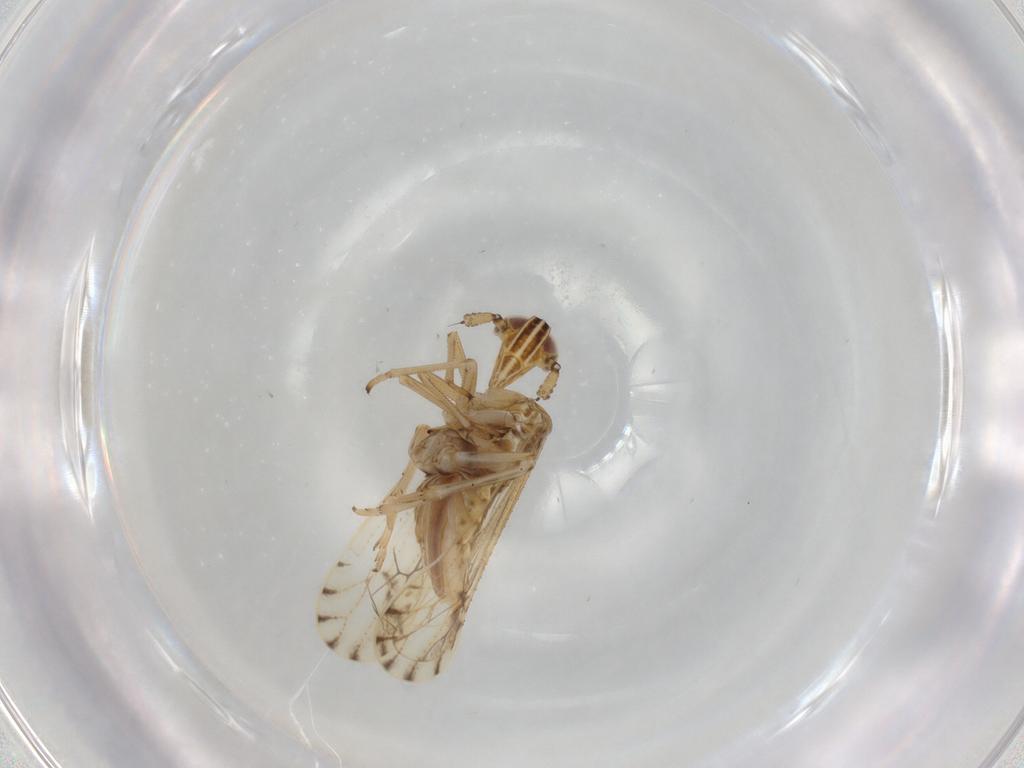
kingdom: Animalia
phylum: Arthropoda
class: Insecta
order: Hemiptera
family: Delphacidae
